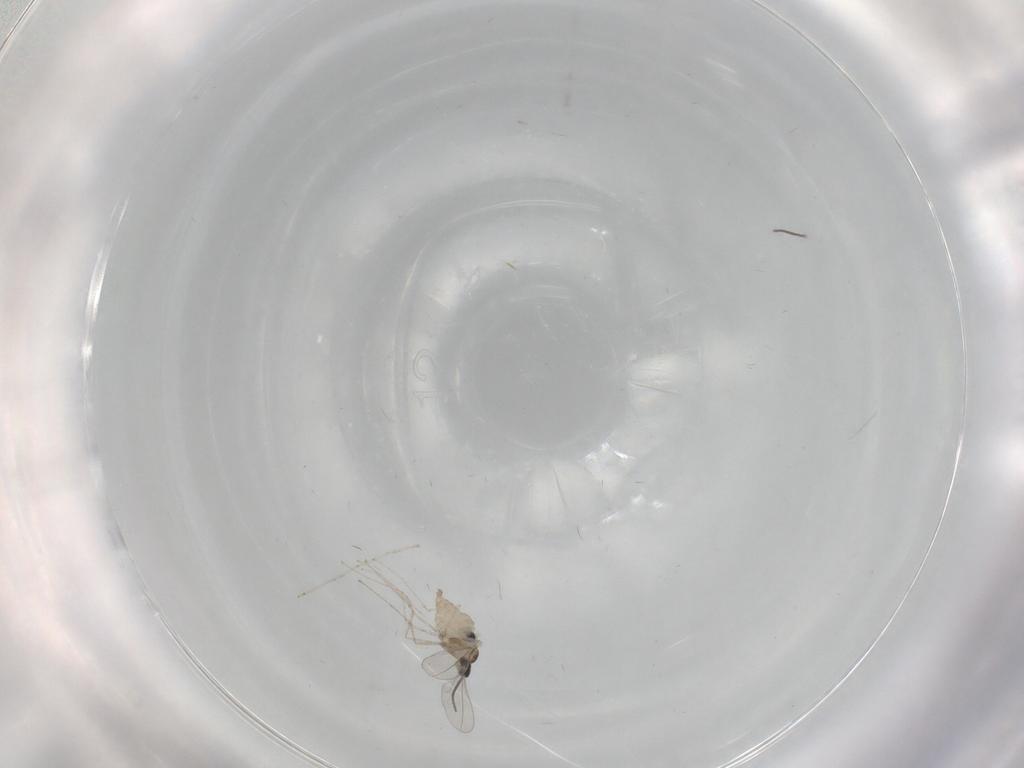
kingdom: Animalia
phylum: Arthropoda
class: Insecta
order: Diptera
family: Cecidomyiidae
